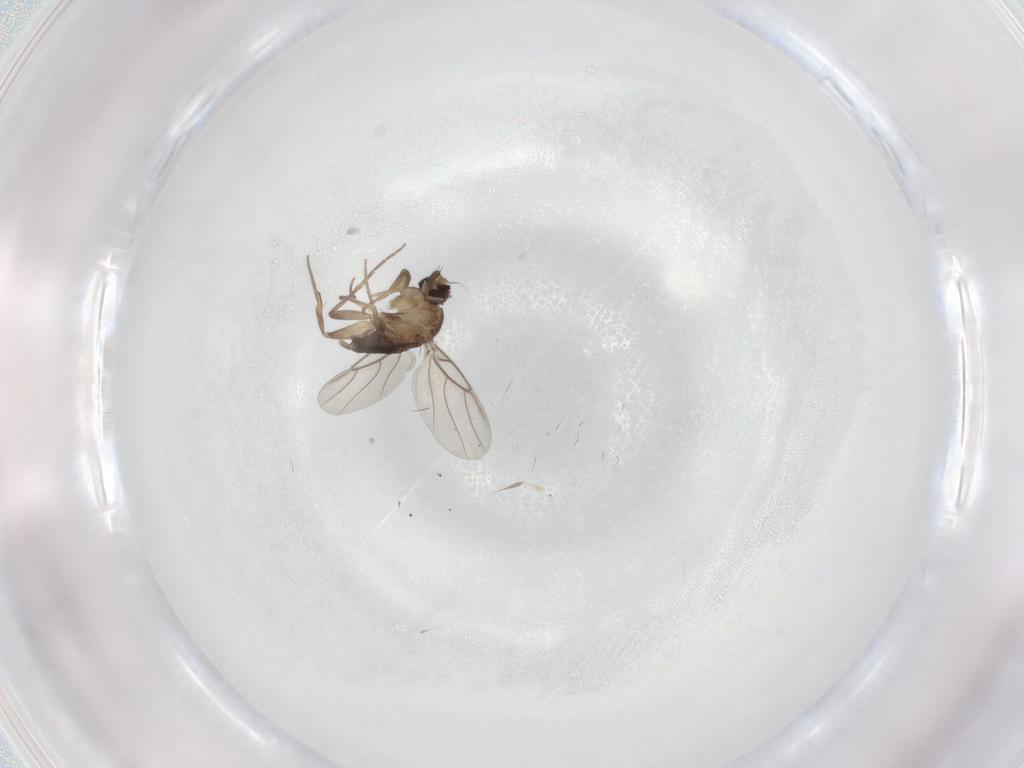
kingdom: Animalia
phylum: Arthropoda
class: Insecta
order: Diptera
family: Phoridae
